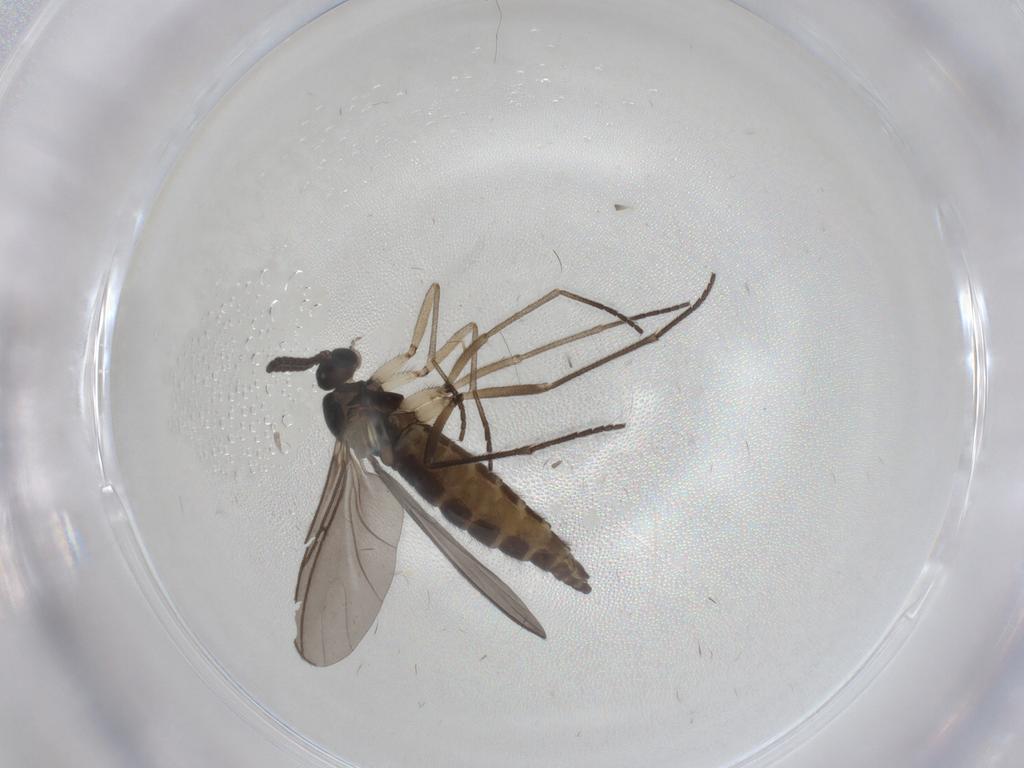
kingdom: Animalia
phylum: Arthropoda
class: Insecta
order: Diptera
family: Sciaridae
